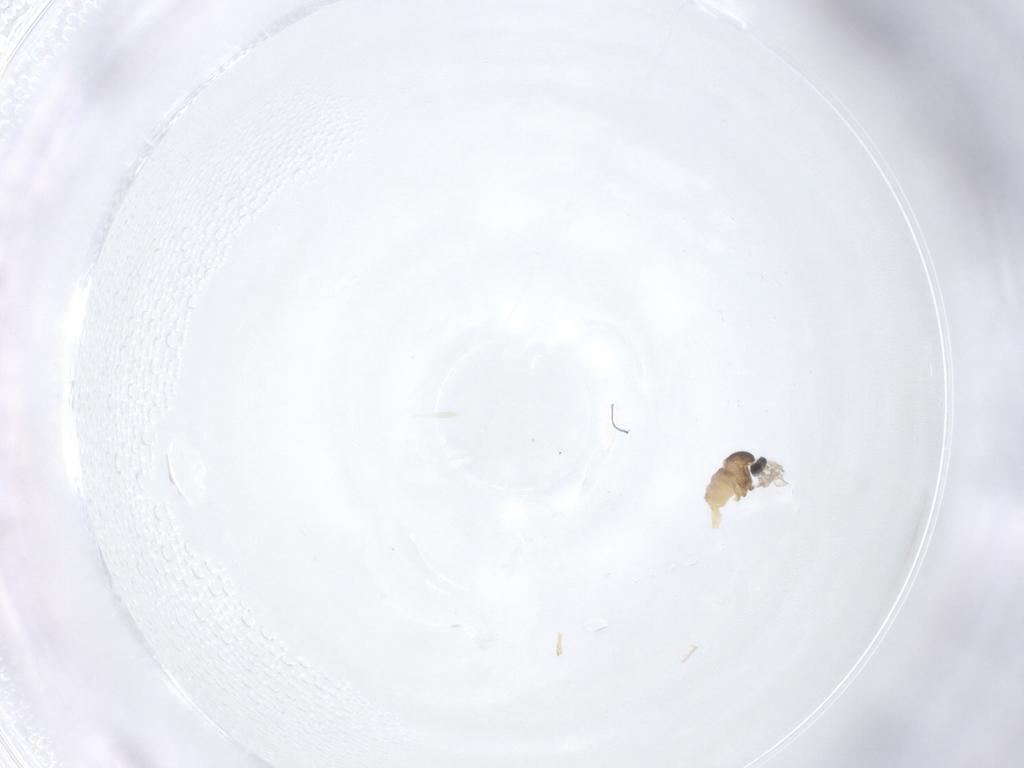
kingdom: Animalia
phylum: Arthropoda
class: Insecta
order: Diptera
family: Cecidomyiidae
